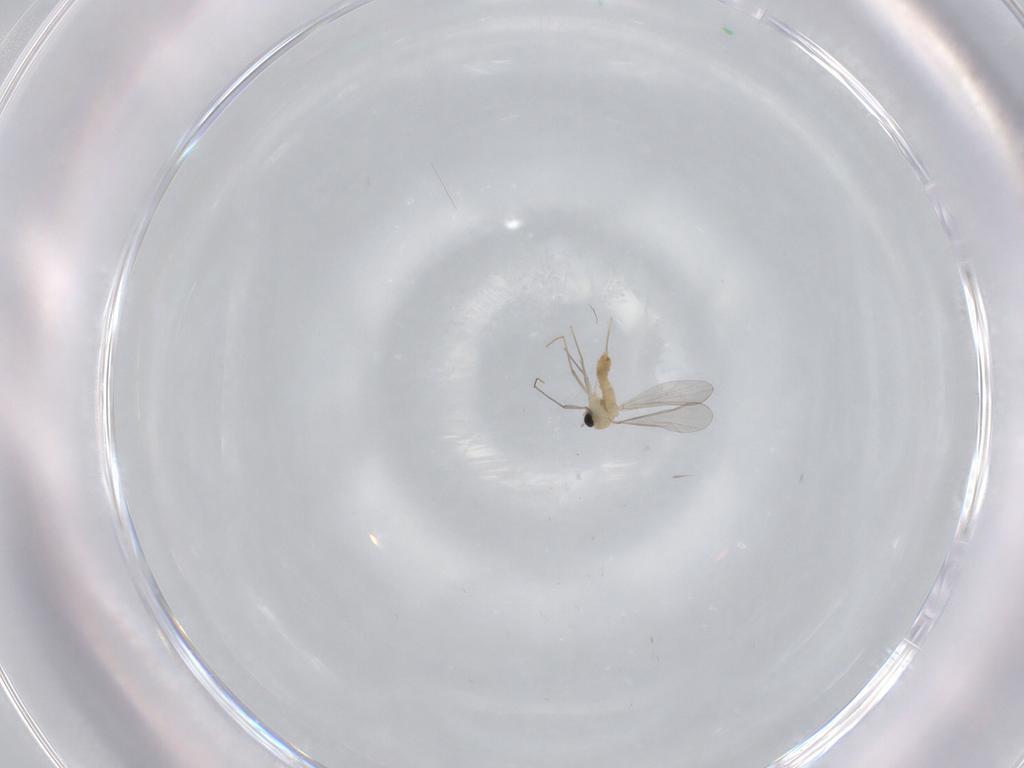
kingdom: Animalia
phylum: Arthropoda
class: Insecta
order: Diptera
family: Chironomidae
